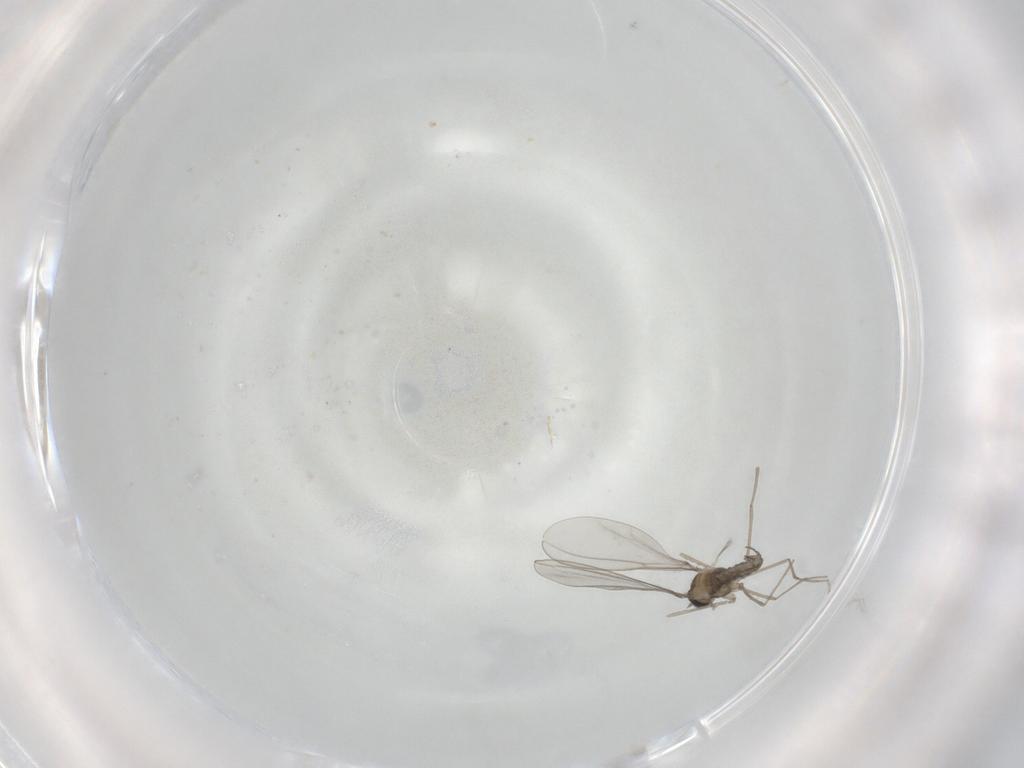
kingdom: Animalia
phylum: Arthropoda
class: Insecta
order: Diptera
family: Ceratopogonidae
